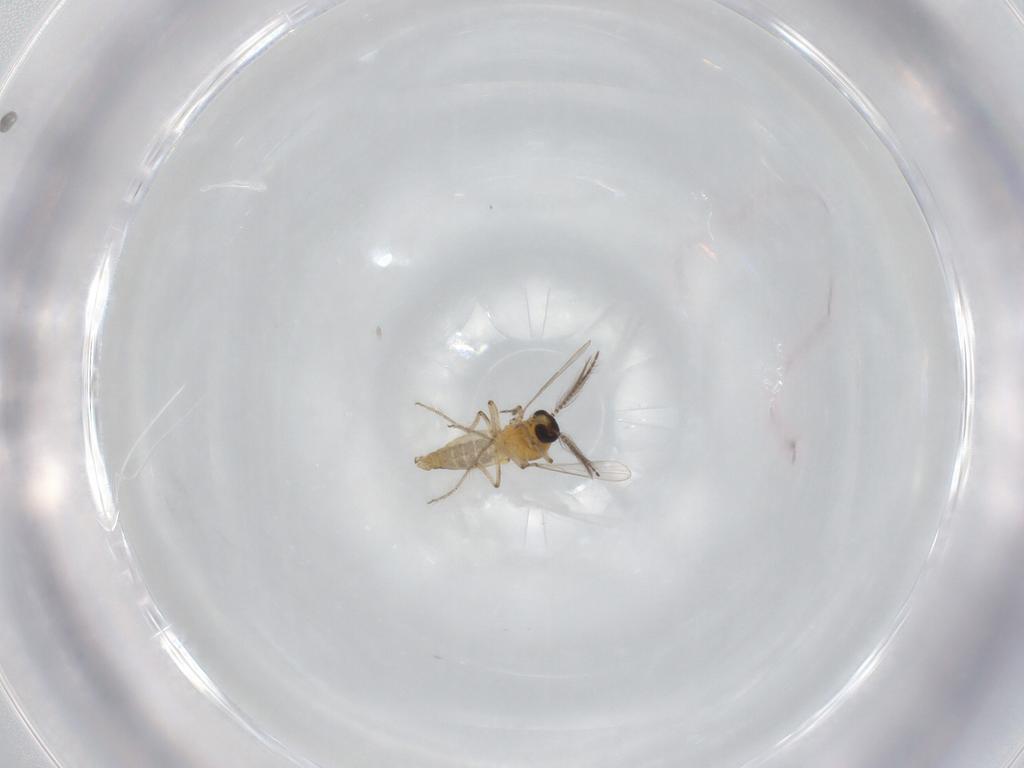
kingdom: Animalia
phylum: Arthropoda
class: Insecta
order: Diptera
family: Ceratopogonidae
